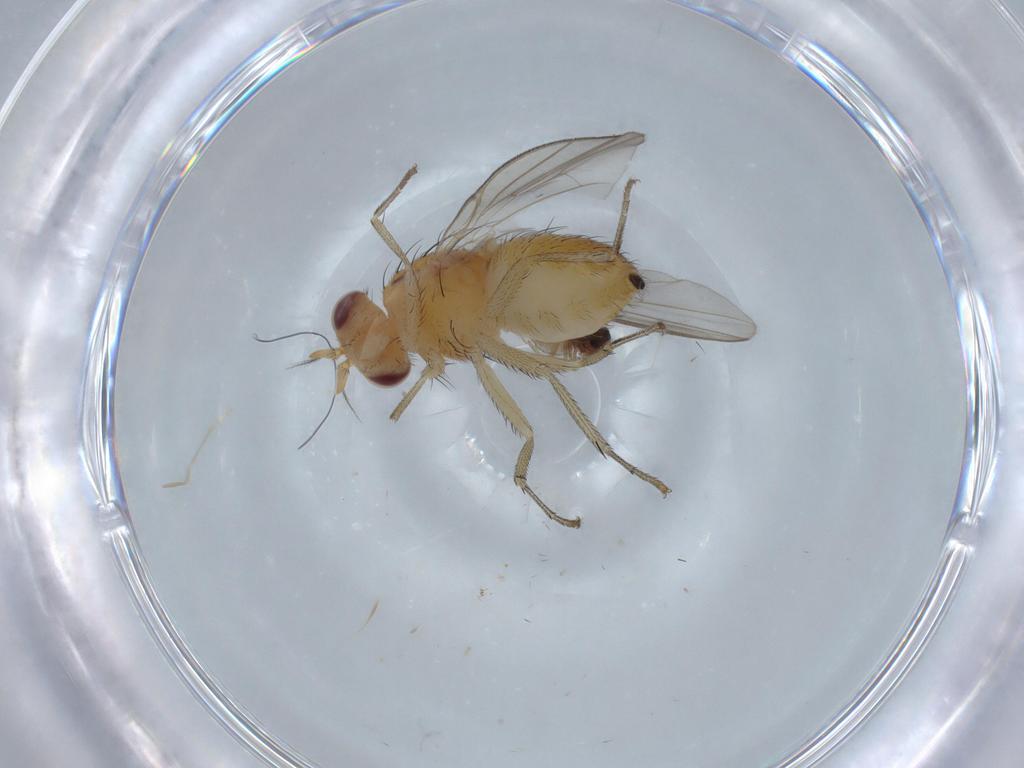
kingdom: Animalia
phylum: Arthropoda
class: Insecta
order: Diptera
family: Ceratopogonidae
